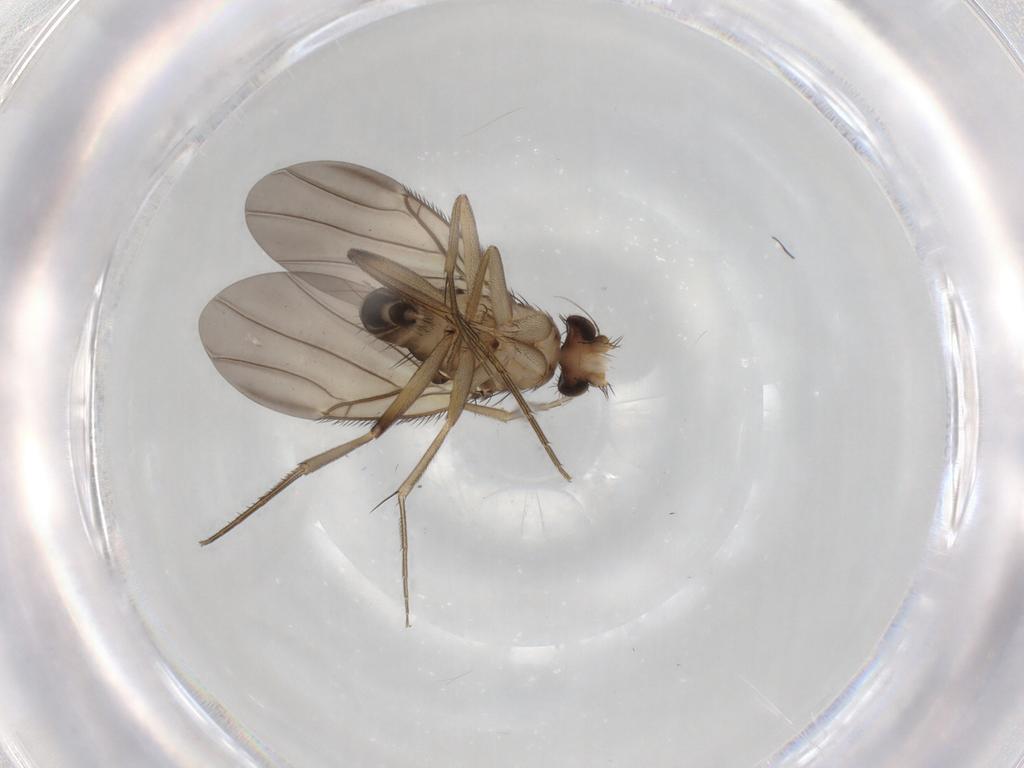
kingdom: Animalia
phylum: Arthropoda
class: Insecta
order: Diptera
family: Phoridae
